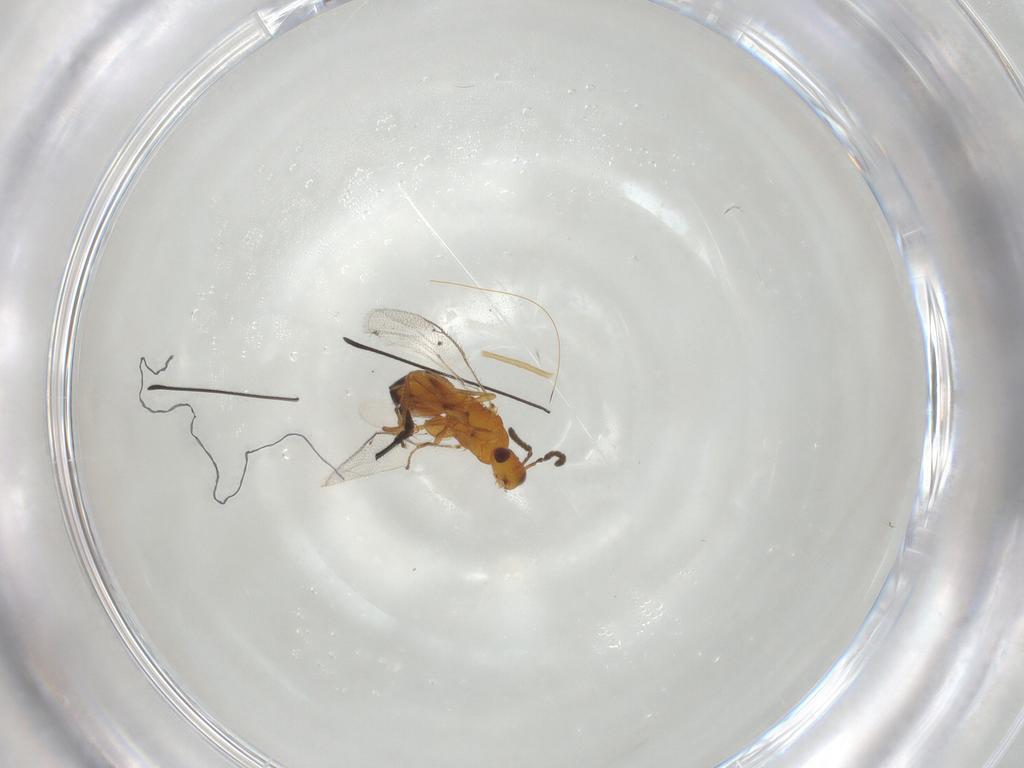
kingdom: Animalia
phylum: Arthropoda
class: Insecta
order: Hymenoptera
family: Pteromalidae
